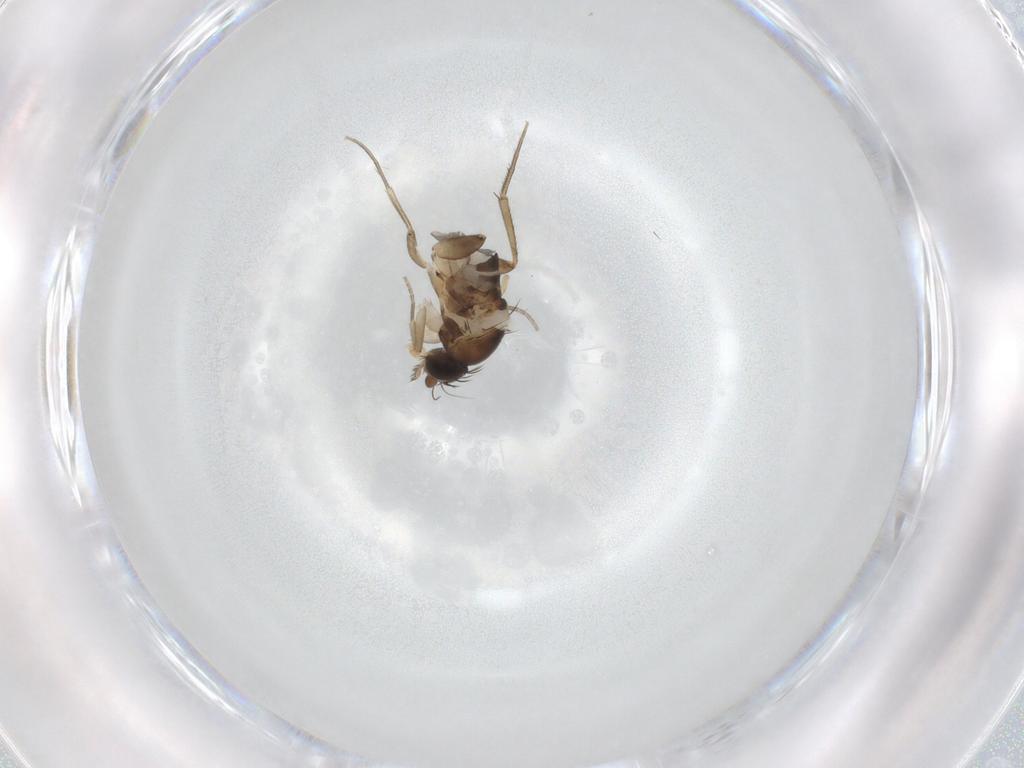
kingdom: Animalia
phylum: Arthropoda
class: Insecta
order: Diptera
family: Phoridae
